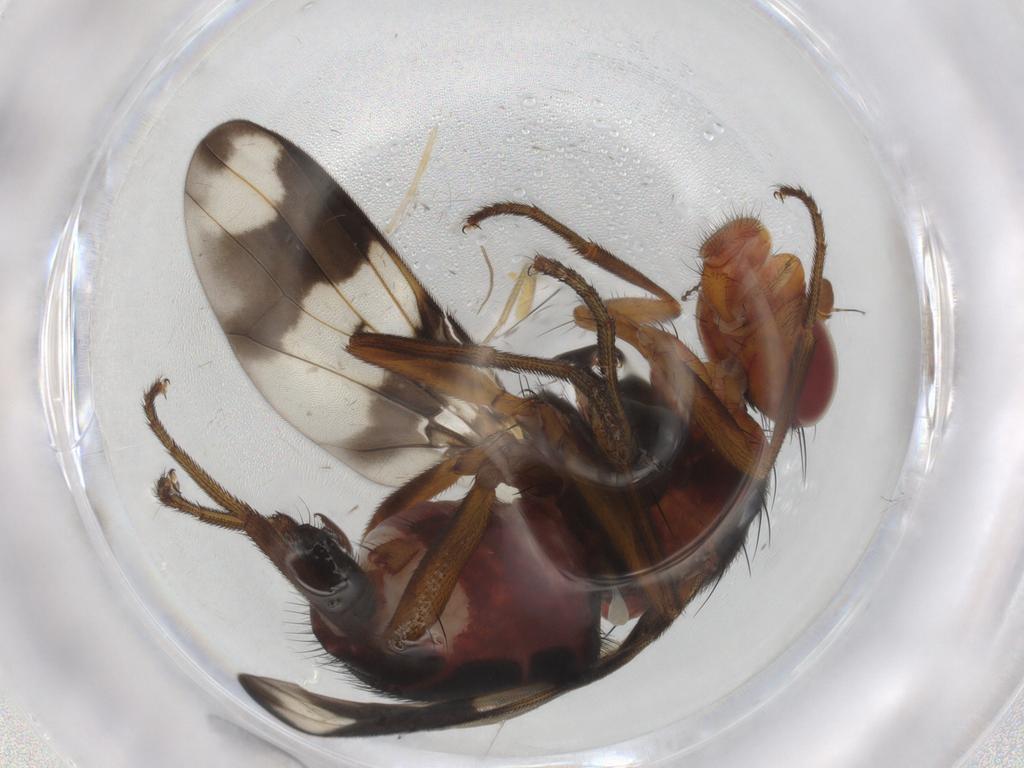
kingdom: Animalia
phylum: Arthropoda
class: Insecta
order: Diptera
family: Richardiidae
